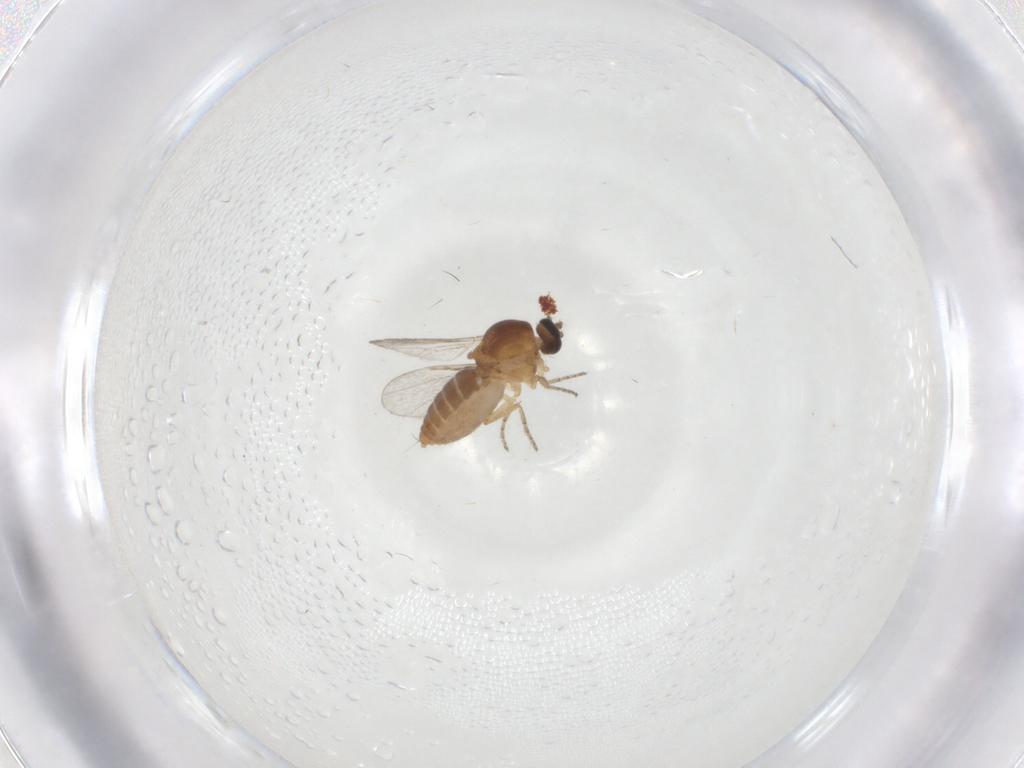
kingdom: Animalia
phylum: Arthropoda
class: Insecta
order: Diptera
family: Ceratopogonidae
